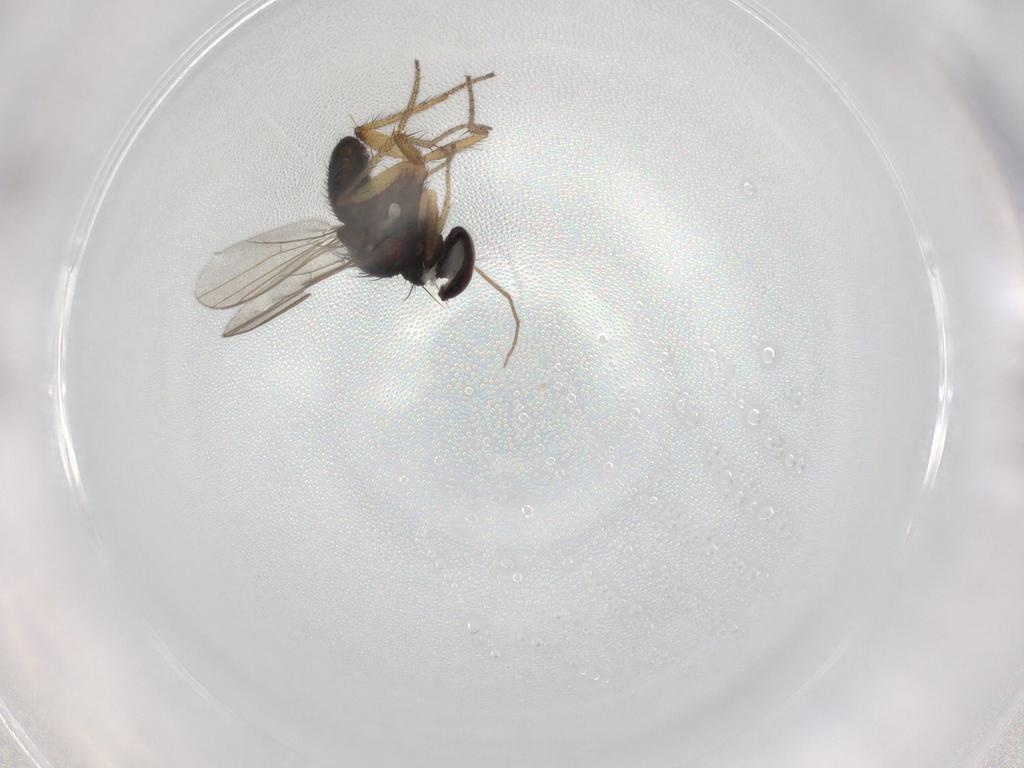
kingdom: Animalia
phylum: Arthropoda
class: Insecta
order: Diptera
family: Dolichopodidae
